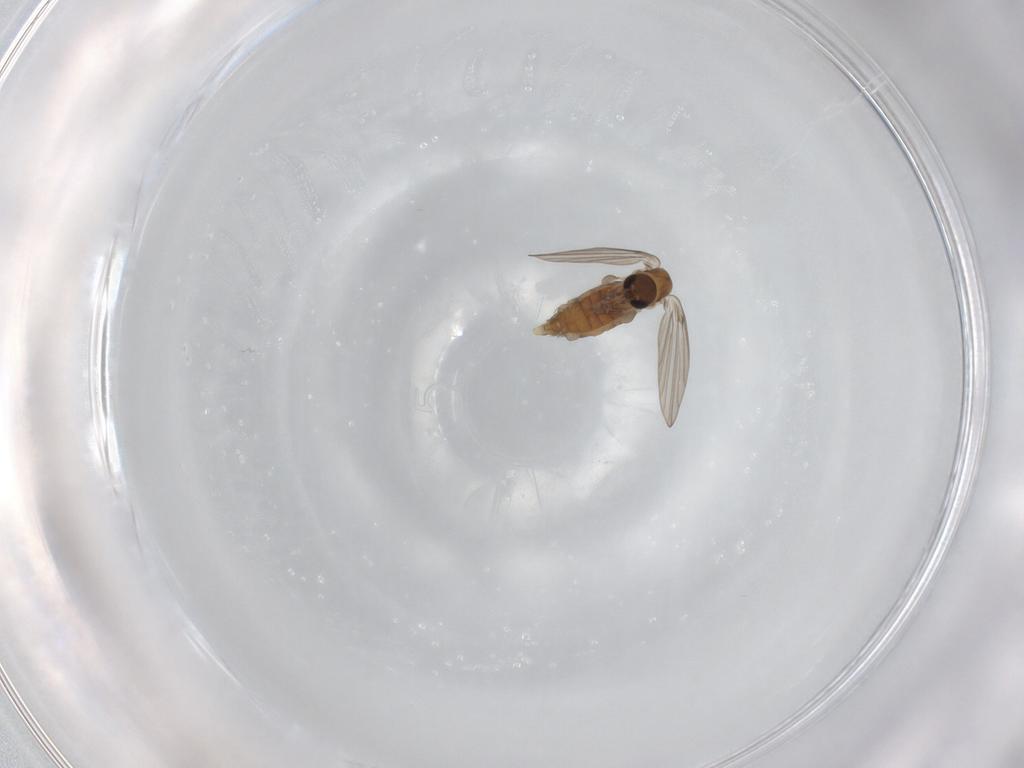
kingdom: Animalia
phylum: Arthropoda
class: Insecta
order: Diptera
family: Psychodidae
